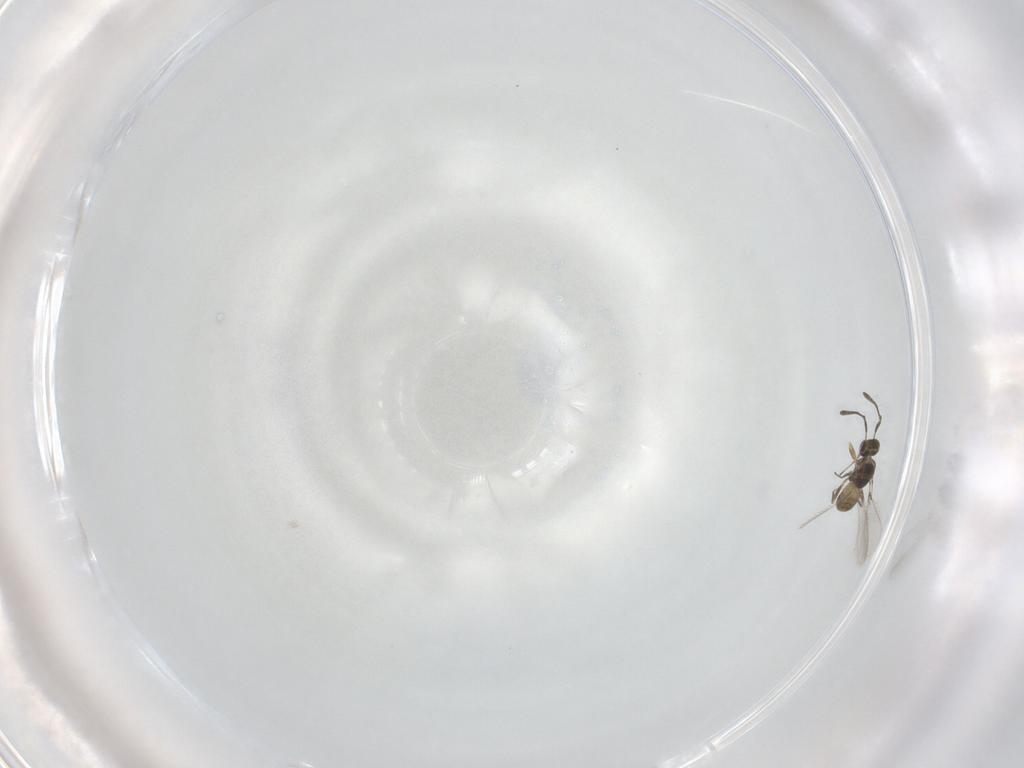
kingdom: Animalia
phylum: Arthropoda
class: Insecta
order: Hymenoptera
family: Mymaridae
